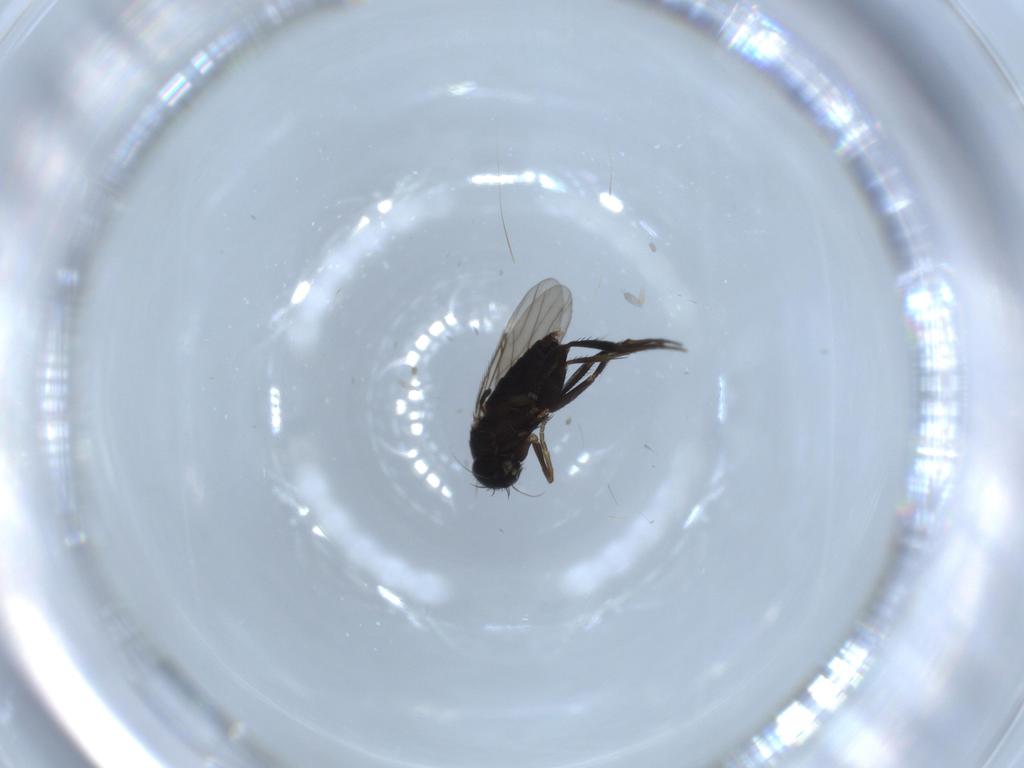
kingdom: Animalia
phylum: Arthropoda
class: Insecta
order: Diptera
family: Phoridae
